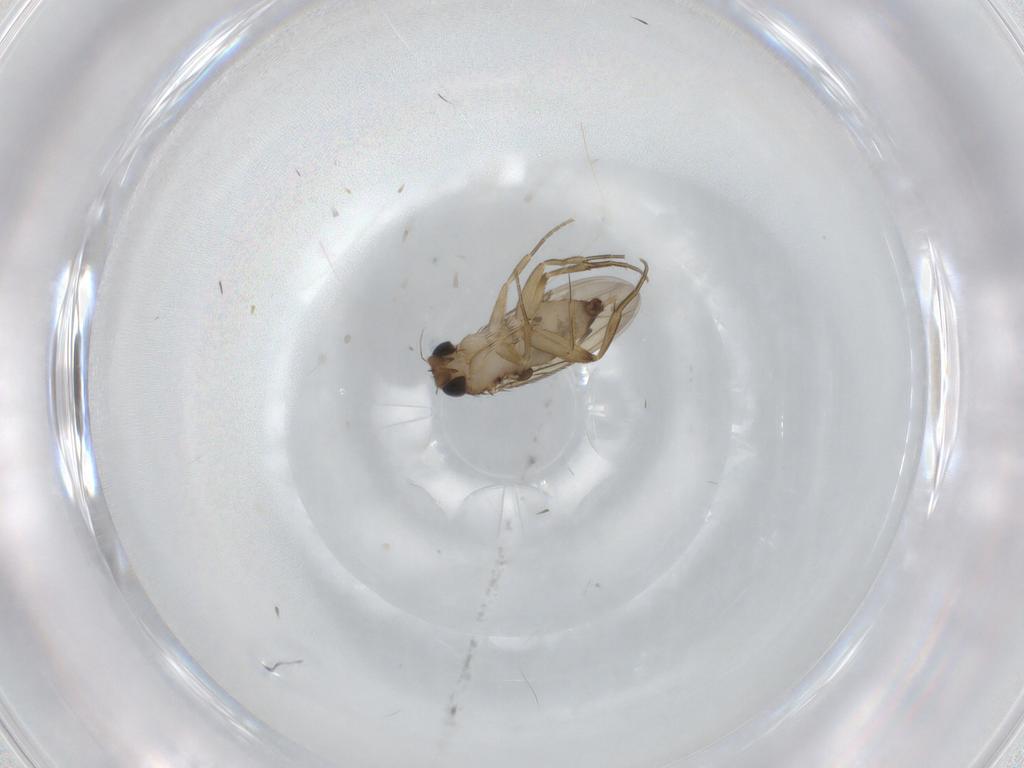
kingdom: Animalia
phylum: Arthropoda
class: Insecta
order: Diptera
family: Phoridae
